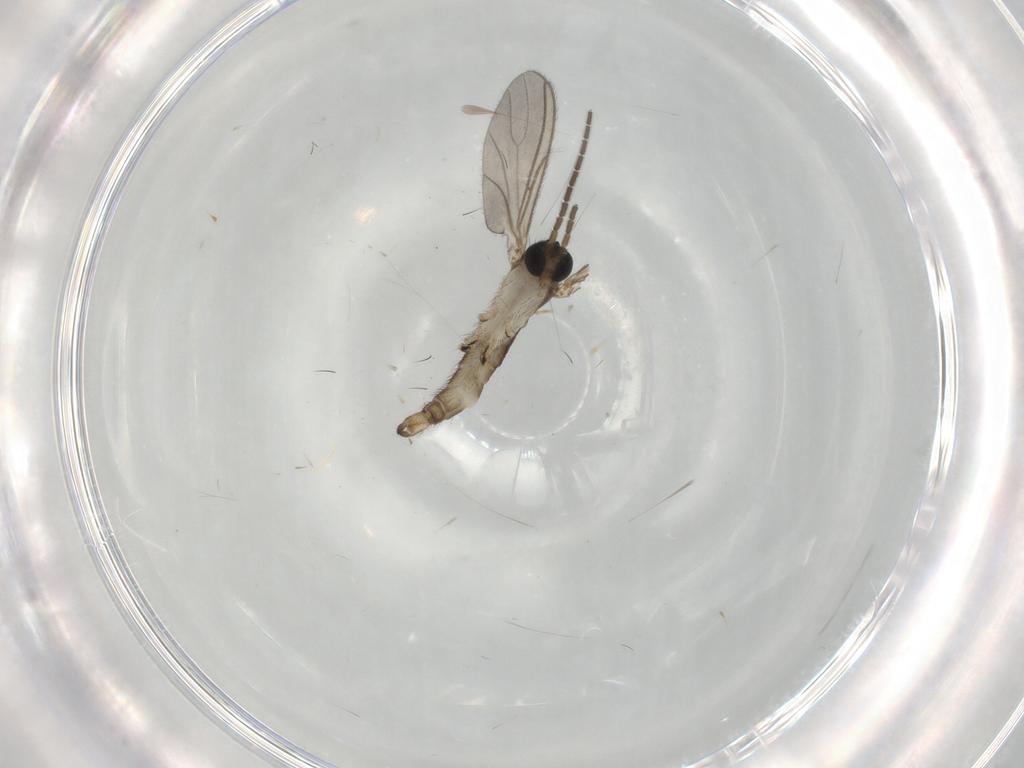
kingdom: Animalia
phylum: Arthropoda
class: Insecta
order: Diptera
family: Sciaridae
